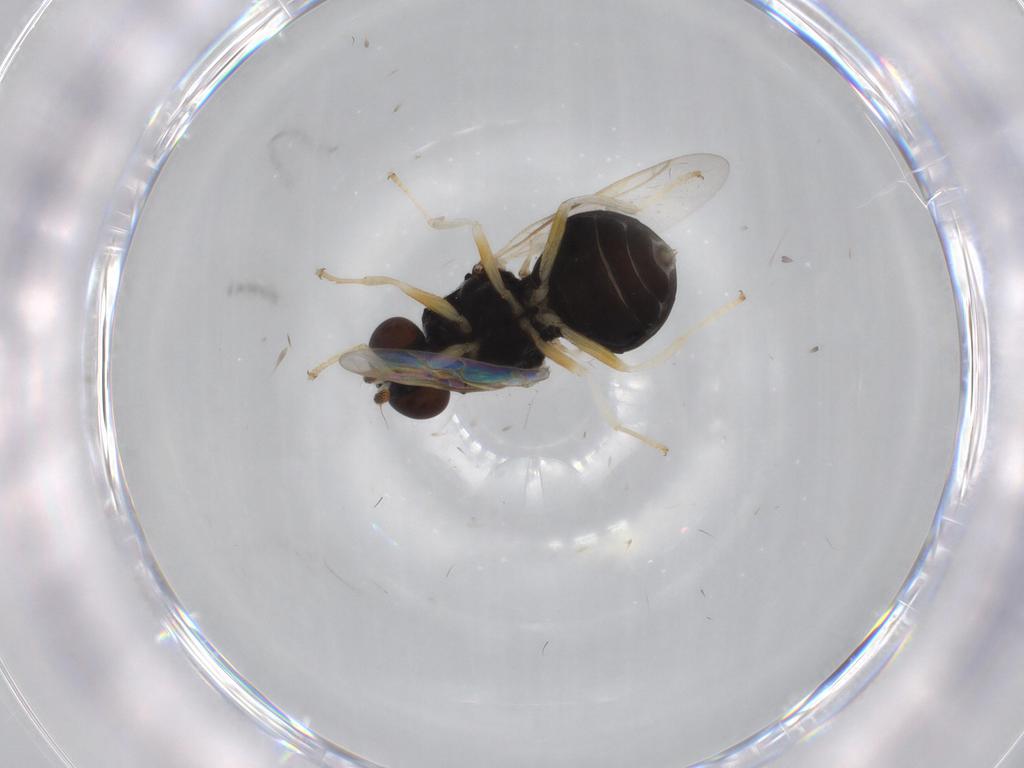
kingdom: Animalia
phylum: Arthropoda
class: Insecta
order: Diptera
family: Stratiomyidae
